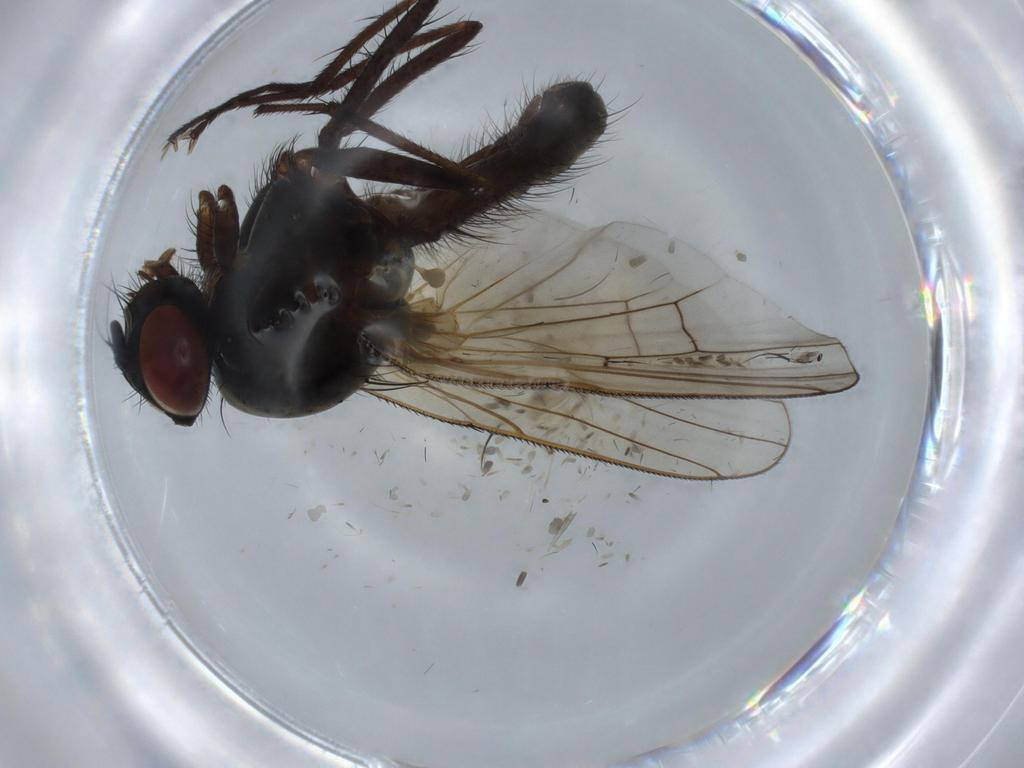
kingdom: Animalia
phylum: Arthropoda
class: Insecta
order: Diptera
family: Anthomyiidae
